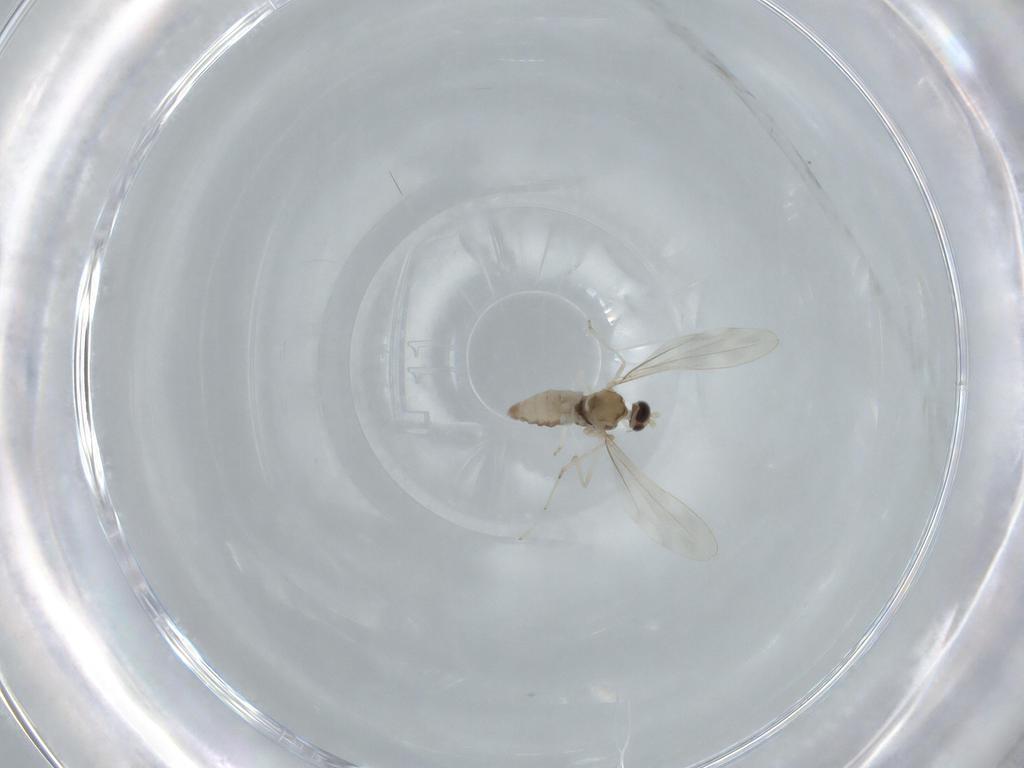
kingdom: Animalia
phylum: Arthropoda
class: Insecta
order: Diptera
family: Cecidomyiidae
